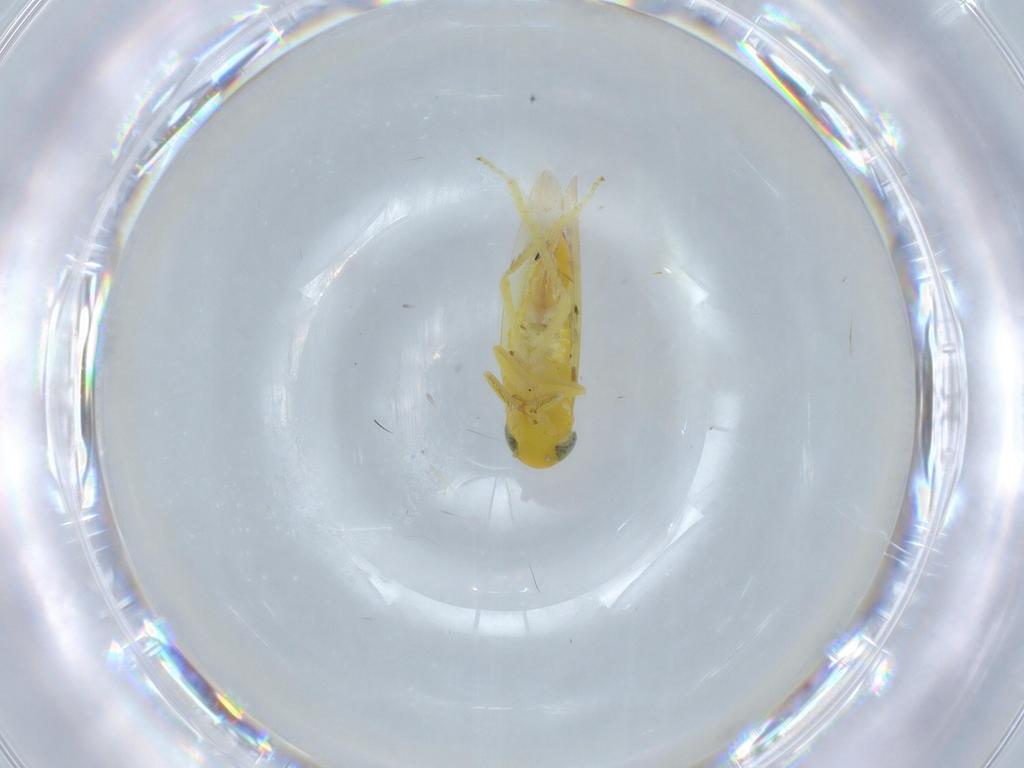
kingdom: Animalia
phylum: Arthropoda
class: Insecta
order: Hemiptera
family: Cicadellidae
